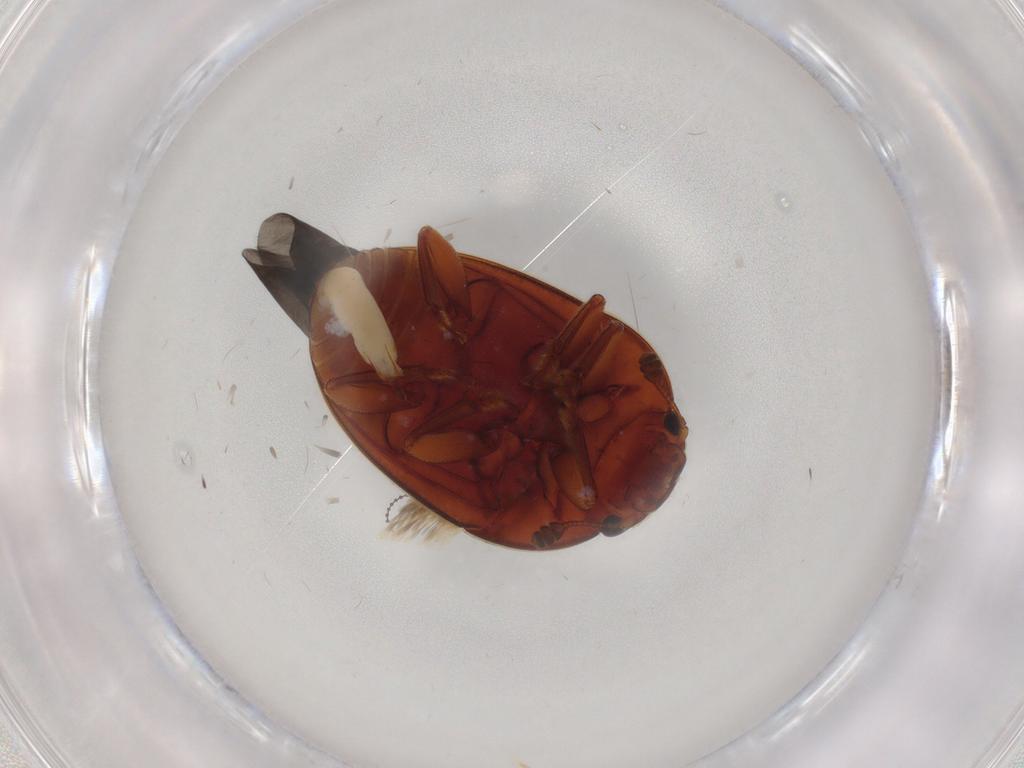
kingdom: Animalia
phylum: Arthropoda
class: Insecta
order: Coleoptera
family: Nitidulidae
